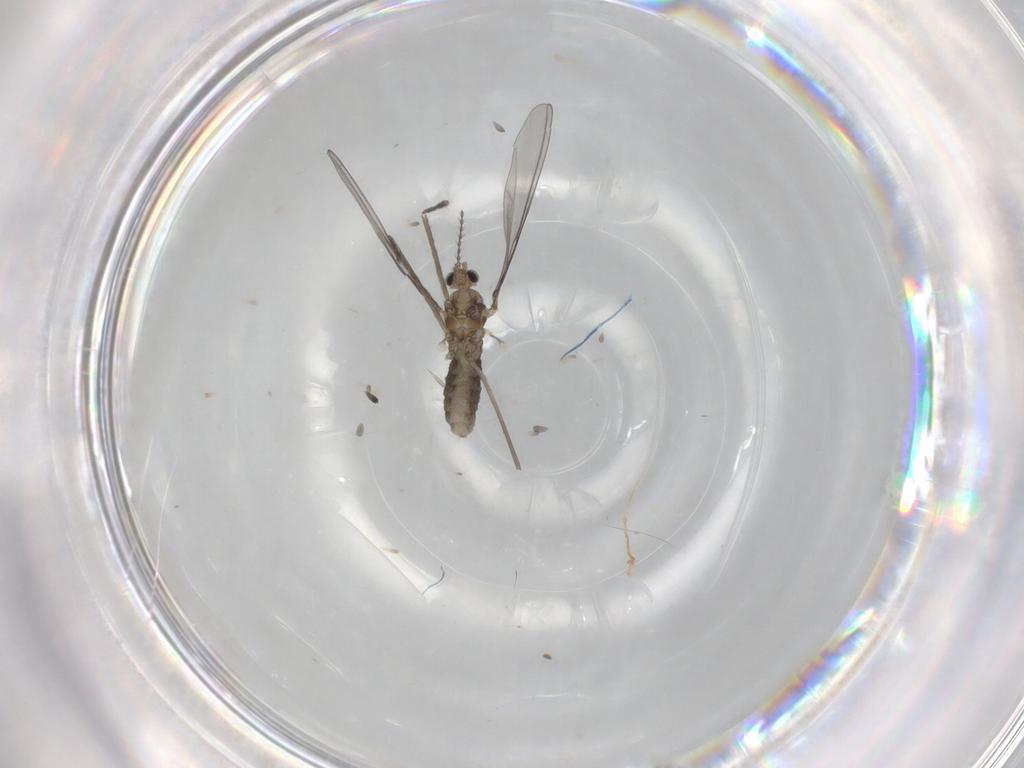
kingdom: Animalia
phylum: Arthropoda
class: Insecta
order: Diptera
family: Cecidomyiidae
